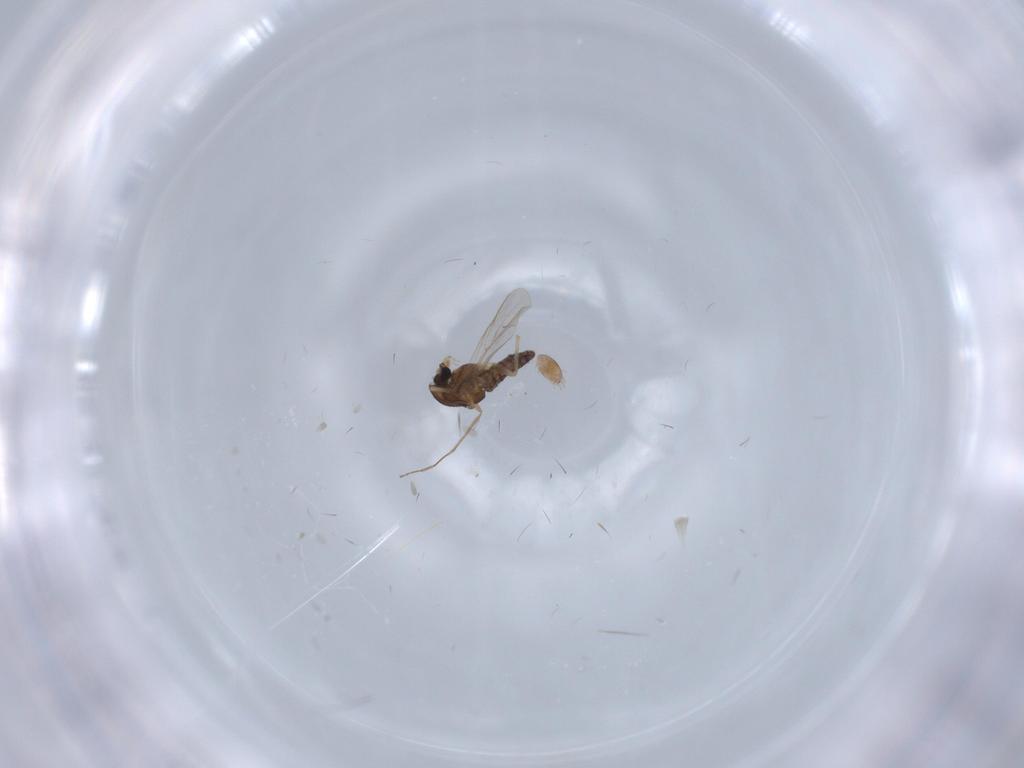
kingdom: Animalia
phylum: Arthropoda
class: Insecta
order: Diptera
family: Chironomidae
